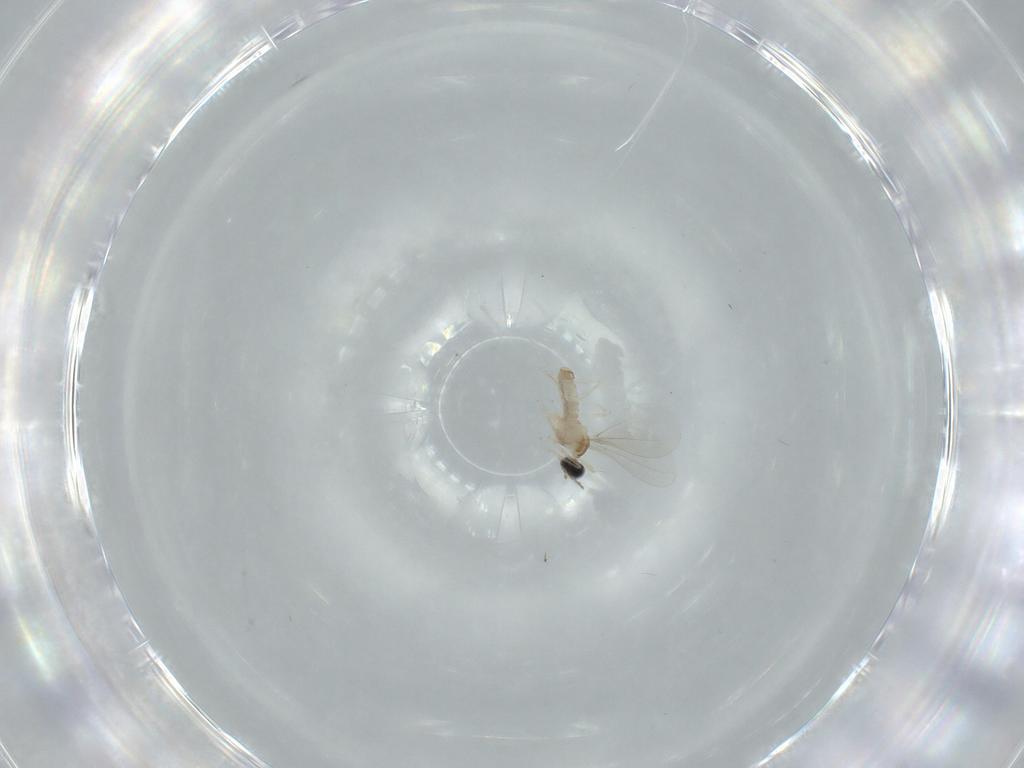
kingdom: Animalia
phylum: Arthropoda
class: Insecta
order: Diptera
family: Cecidomyiidae
